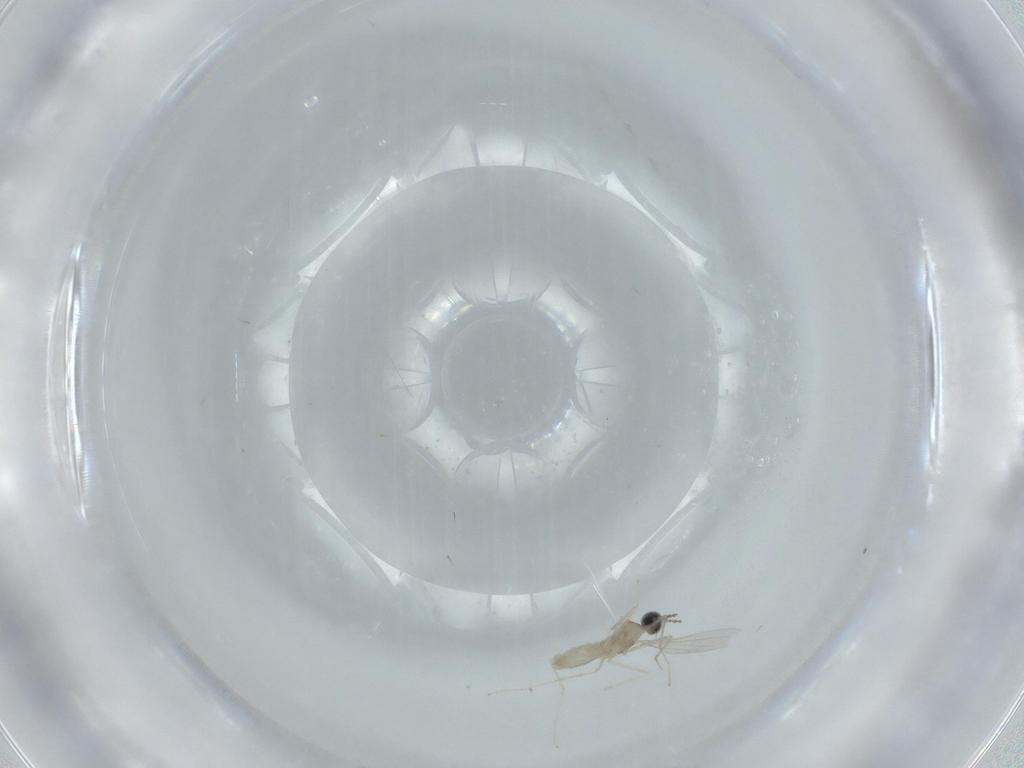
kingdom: Animalia
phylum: Arthropoda
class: Insecta
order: Diptera
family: Cecidomyiidae
